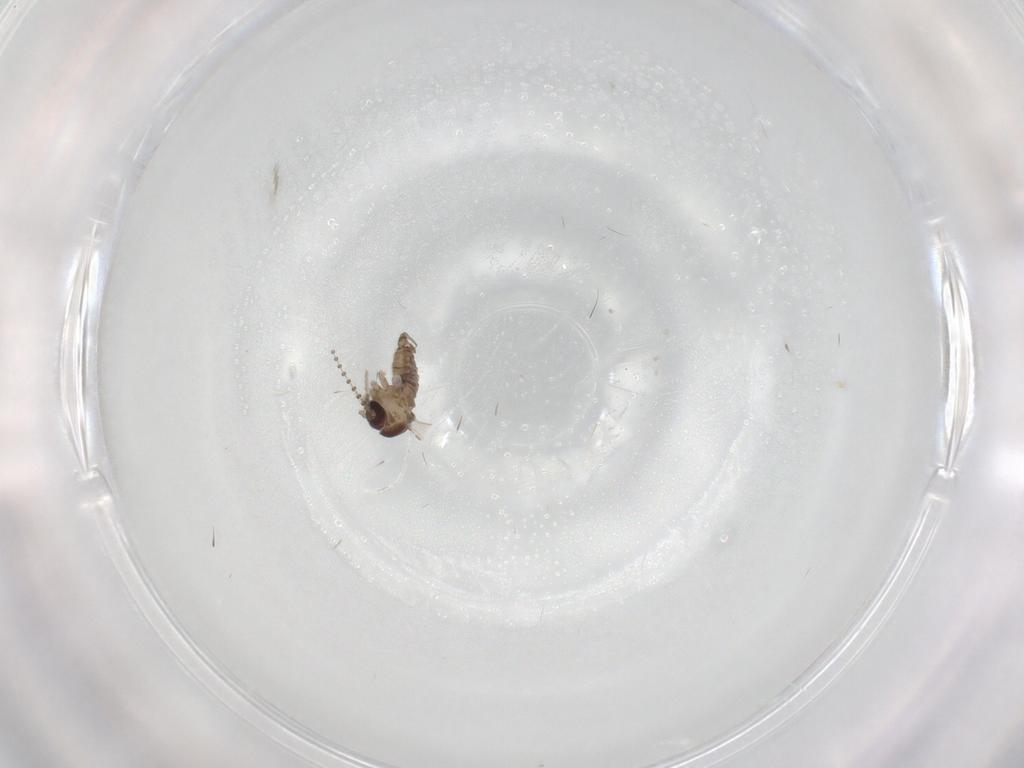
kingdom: Animalia
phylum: Arthropoda
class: Insecta
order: Diptera
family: Psychodidae
